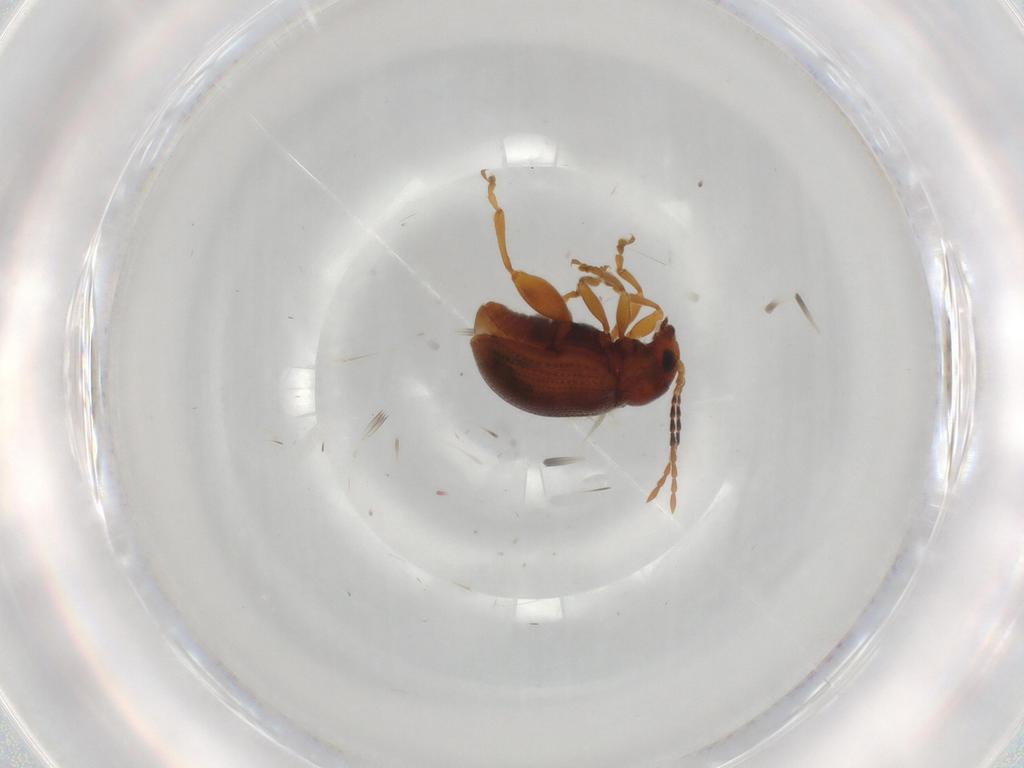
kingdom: Animalia
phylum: Arthropoda
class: Insecta
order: Coleoptera
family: Chrysomelidae
